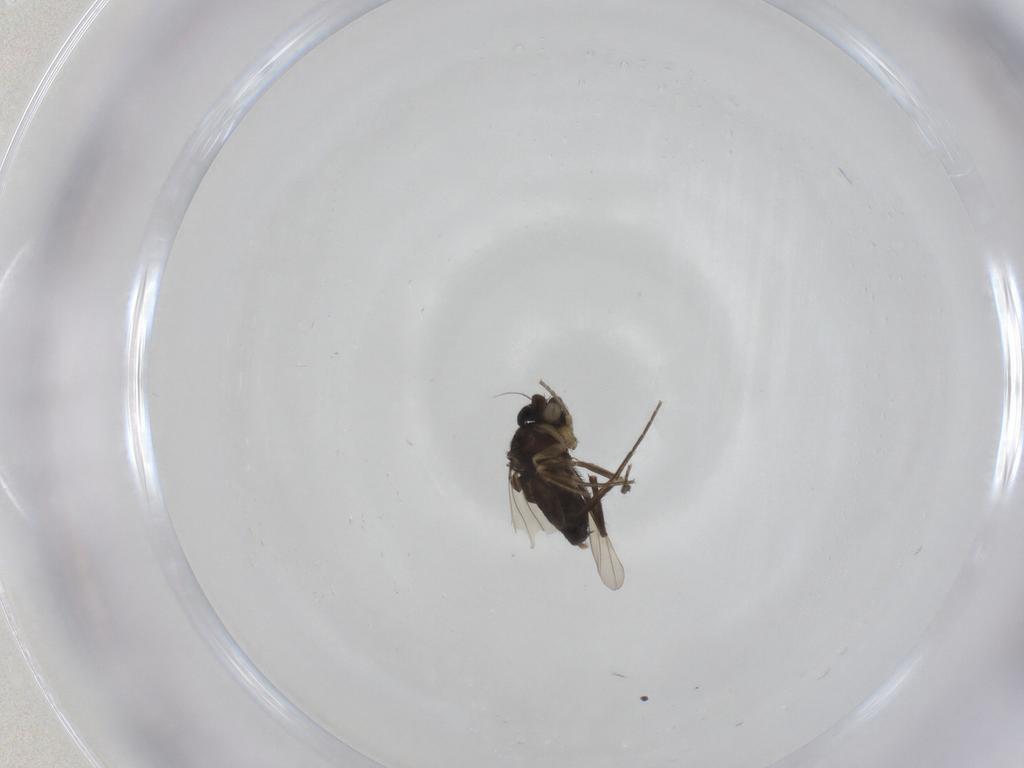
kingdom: Animalia
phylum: Arthropoda
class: Insecta
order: Diptera
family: Phoridae
